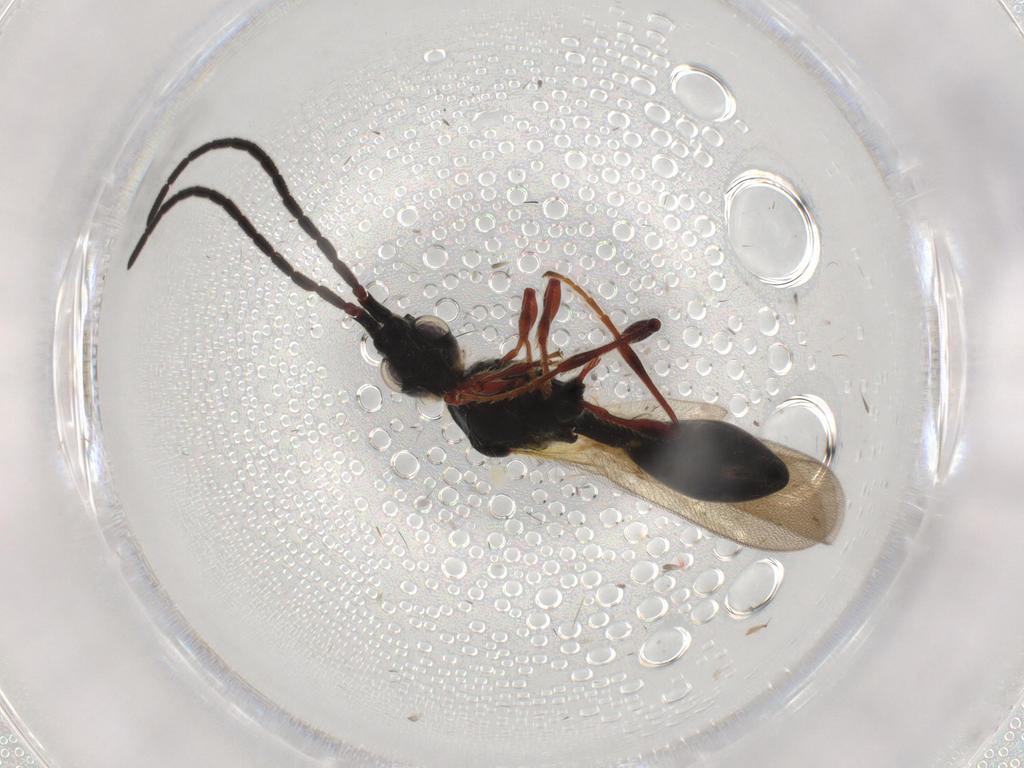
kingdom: Animalia
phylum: Arthropoda
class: Insecta
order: Hymenoptera
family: Diapriidae
